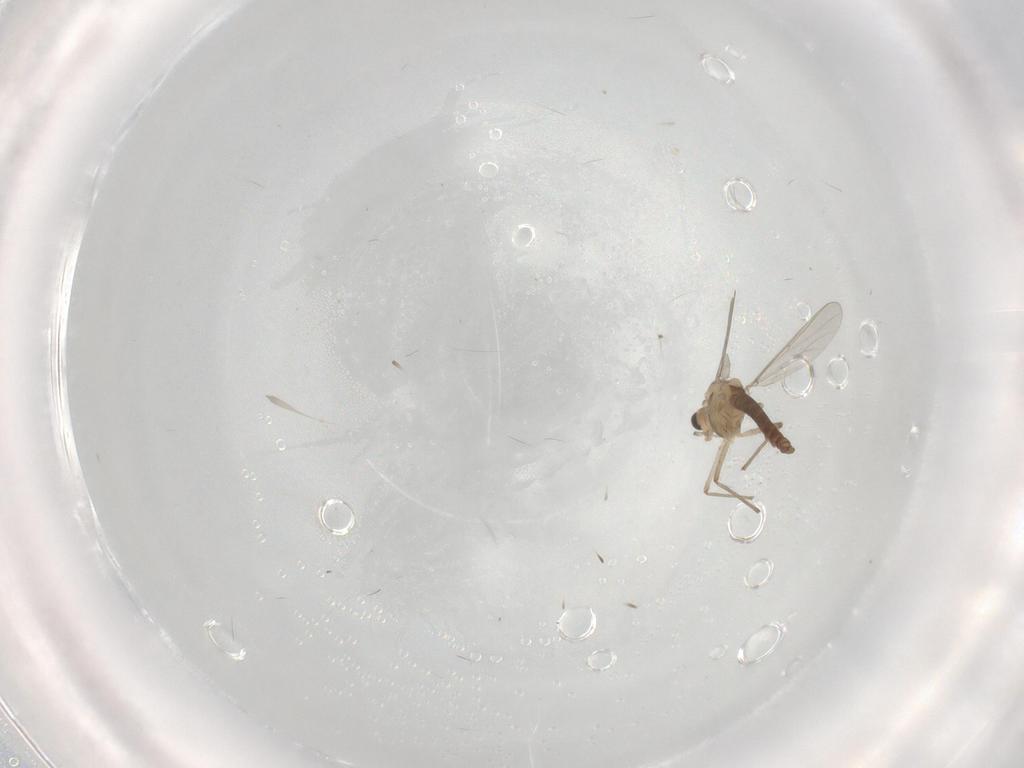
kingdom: Animalia
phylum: Arthropoda
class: Insecta
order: Diptera
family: Chironomidae
